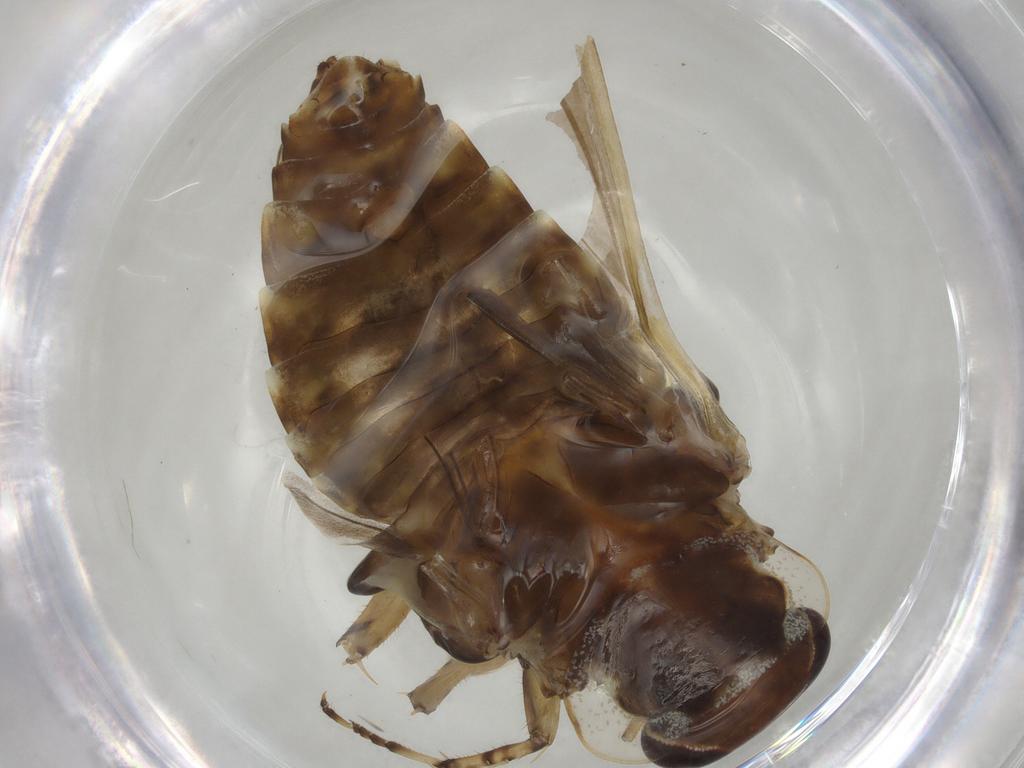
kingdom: Animalia
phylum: Arthropoda
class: Insecta
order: Blattodea
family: Ectobiidae
